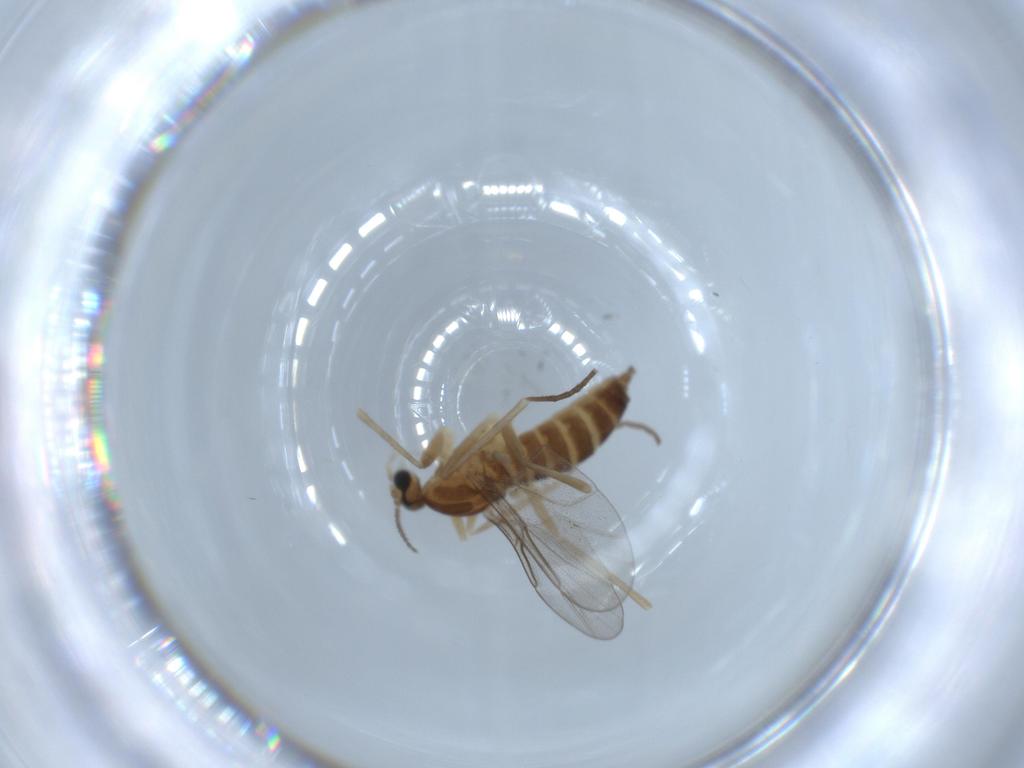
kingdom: Animalia
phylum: Arthropoda
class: Insecta
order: Diptera
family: Cecidomyiidae
